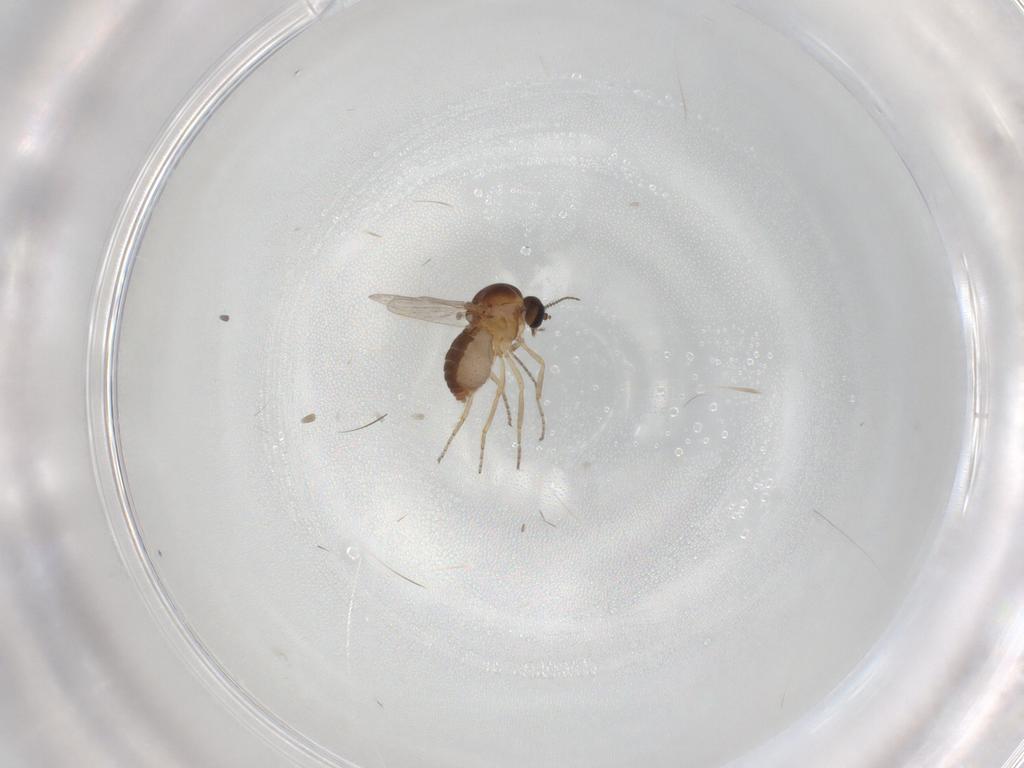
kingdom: Animalia
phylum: Arthropoda
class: Insecta
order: Diptera
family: Ceratopogonidae
